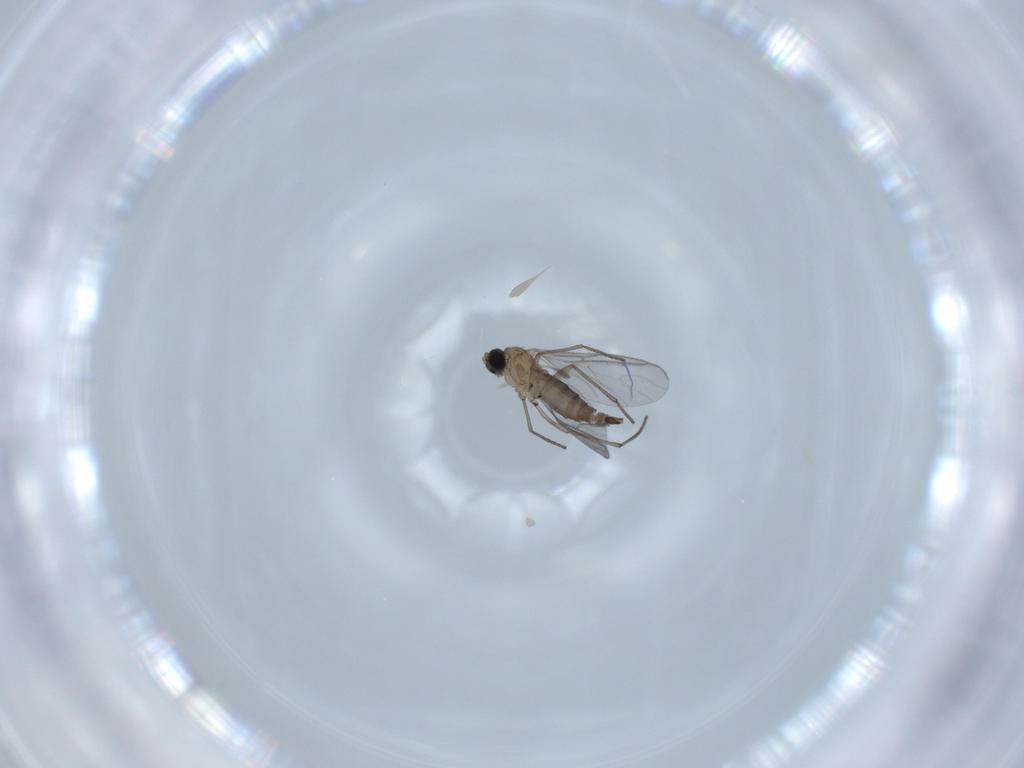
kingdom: Animalia
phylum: Arthropoda
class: Insecta
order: Diptera
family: Sciaridae
